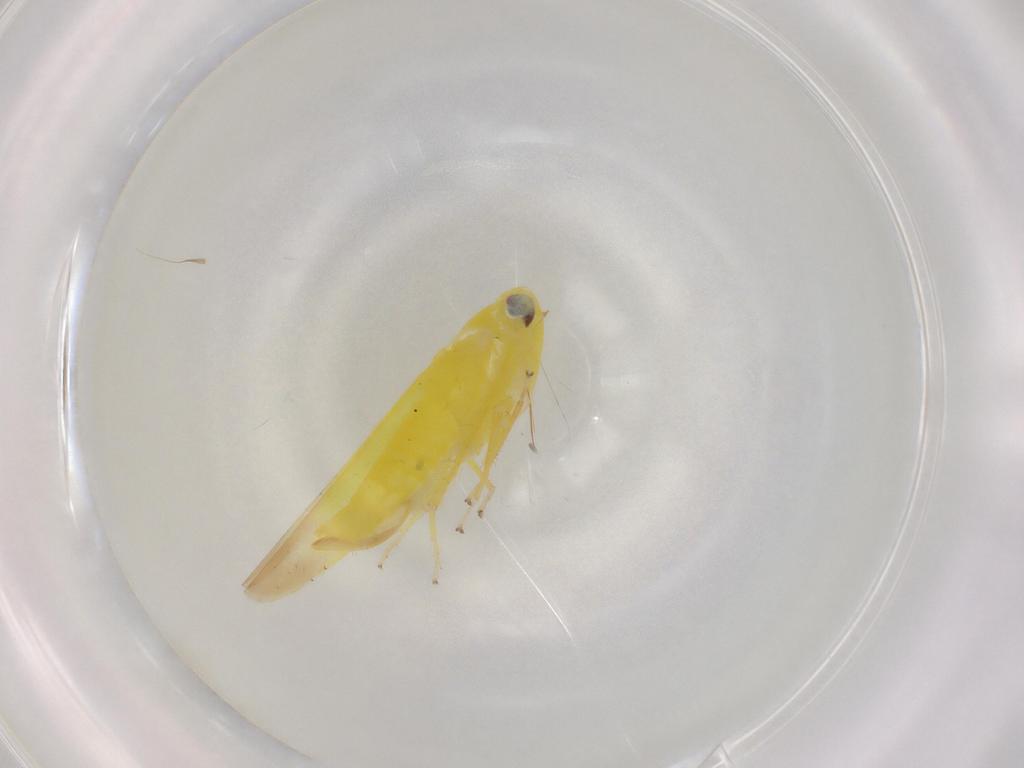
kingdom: Animalia
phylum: Arthropoda
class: Insecta
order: Hemiptera
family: Cicadellidae
